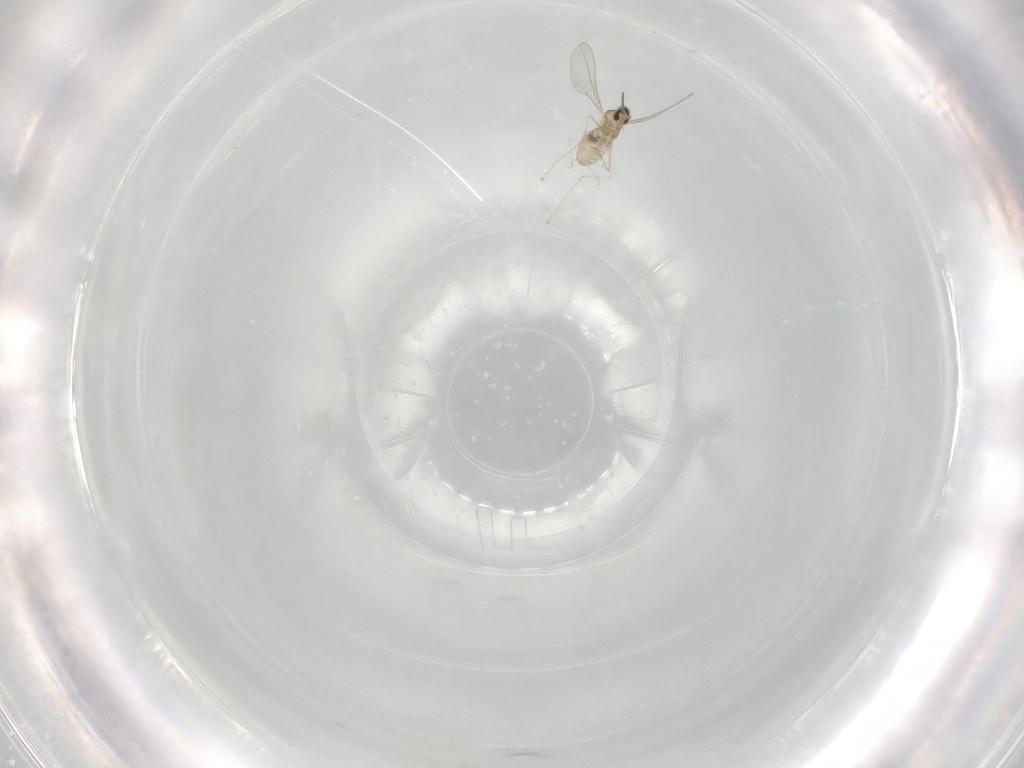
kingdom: Animalia
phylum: Arthropoda
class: Insecta
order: Diptera
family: Cecidomyiidae
